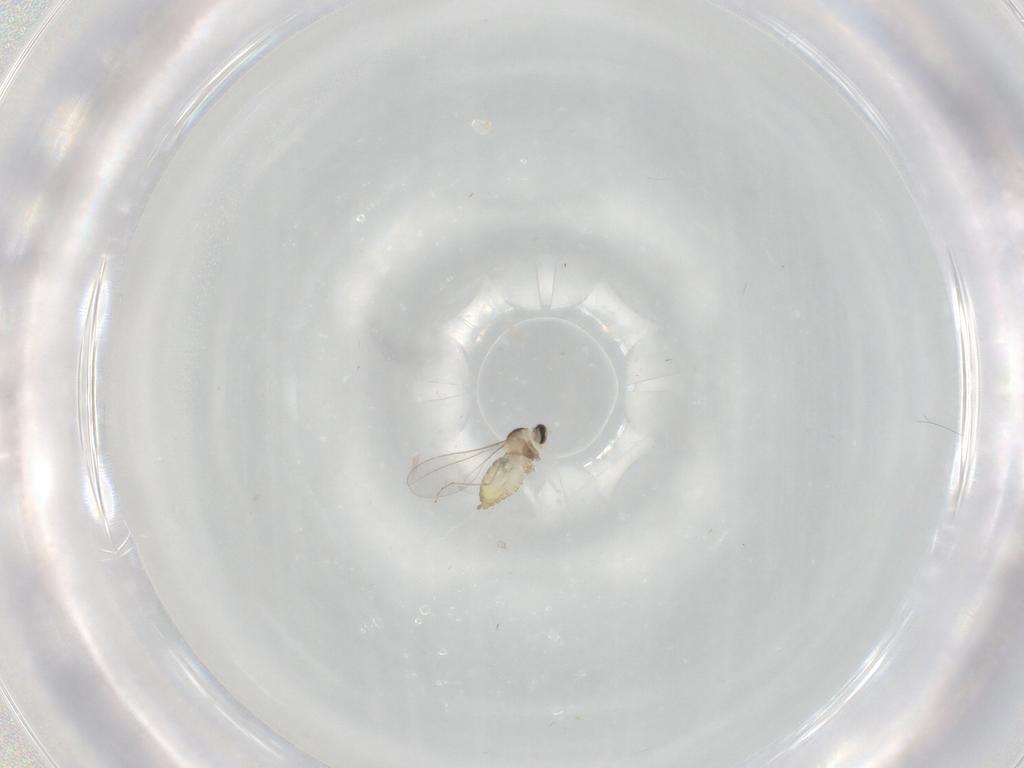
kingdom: Animalia
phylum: Arthropoda
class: Insecta
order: Diptera
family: Cecidomyiidae
